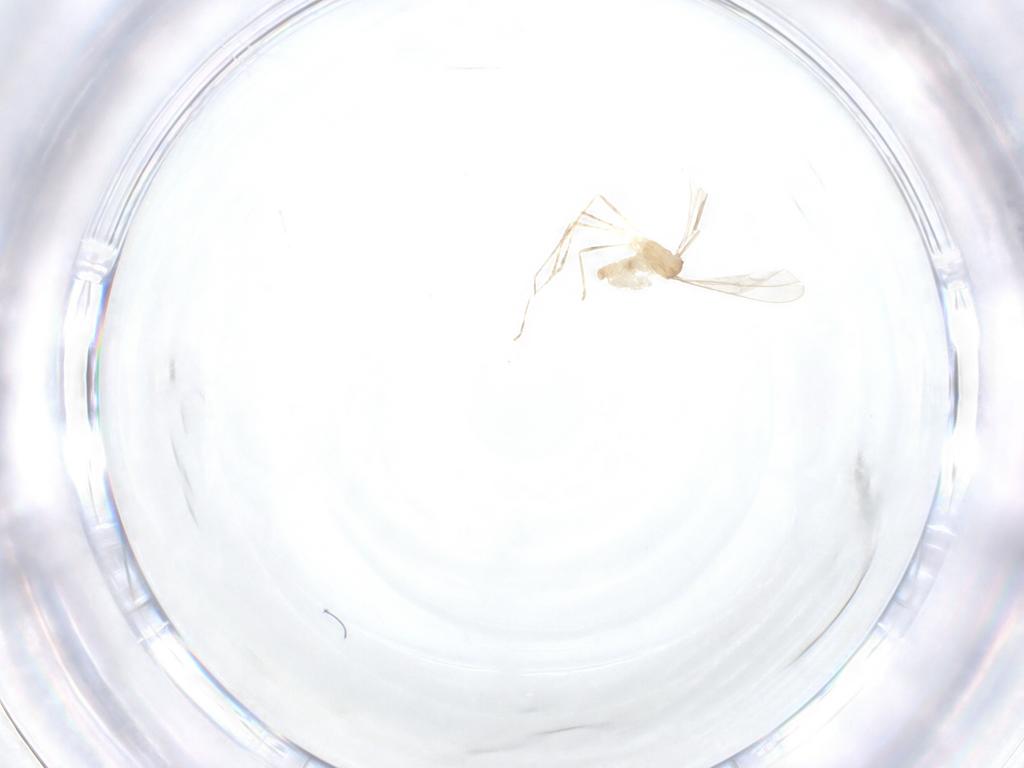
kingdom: Animalia
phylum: Arthropoda
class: Insecta
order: Diptera
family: Cecidomyiidae
